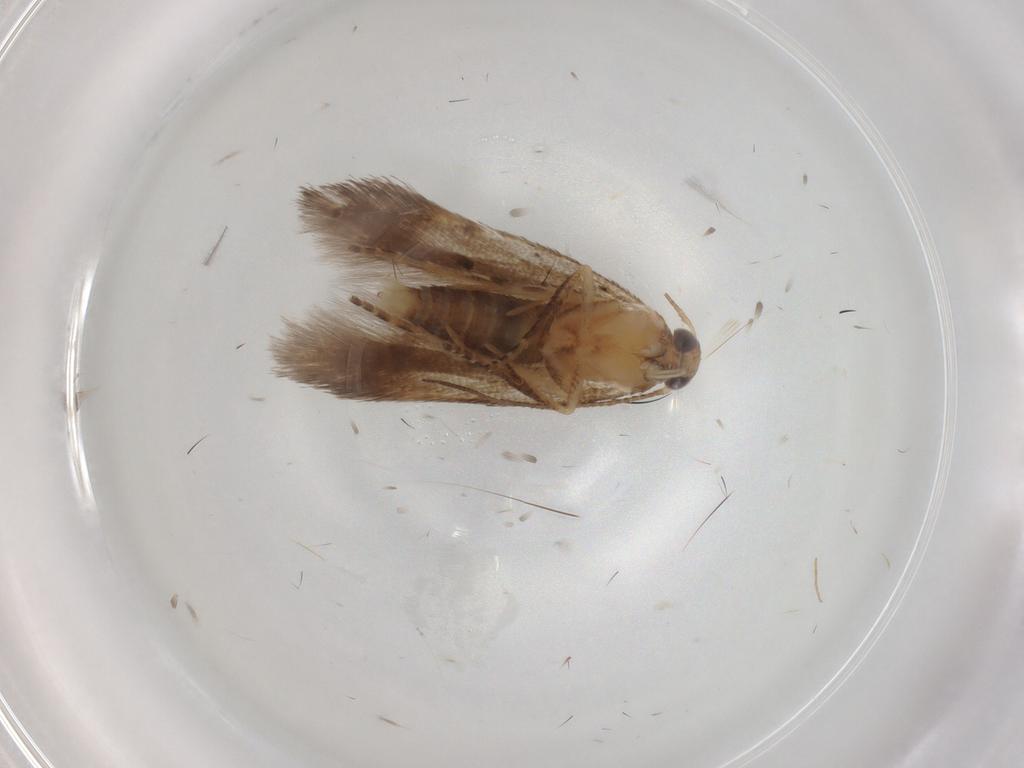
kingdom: Animalia
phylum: Arthropoda
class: Insecta
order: Lepidoptera
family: Gelechiidae
